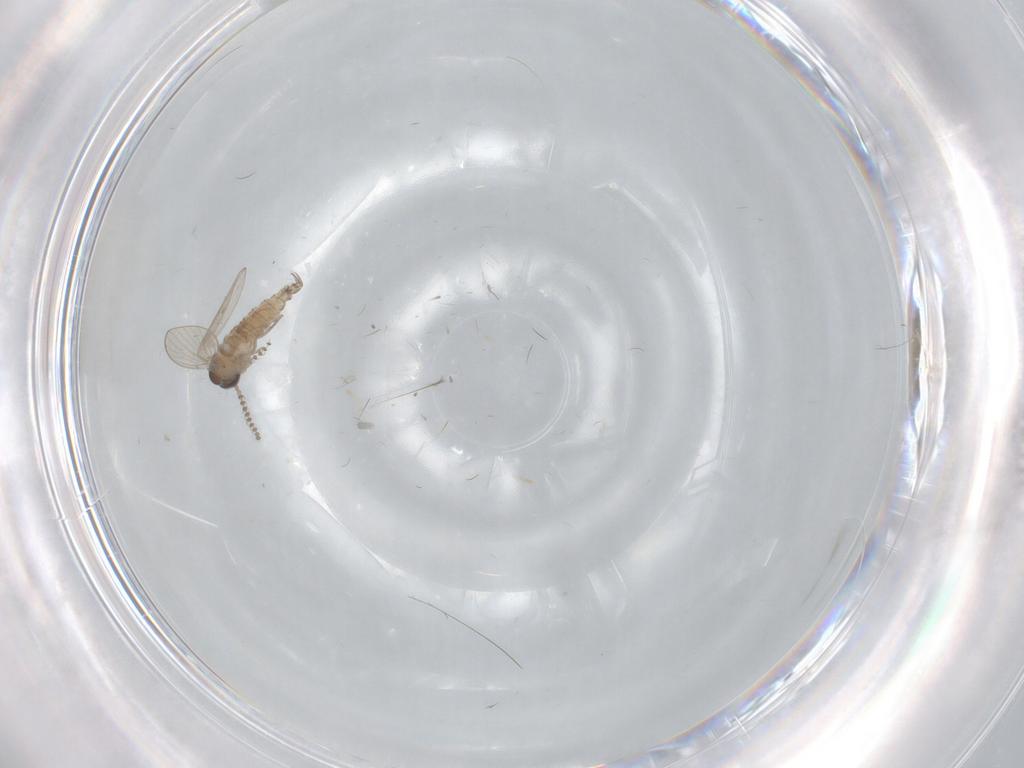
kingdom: Animalia
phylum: Arthropoda
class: Insecta
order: Diptera
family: Psychodidae
